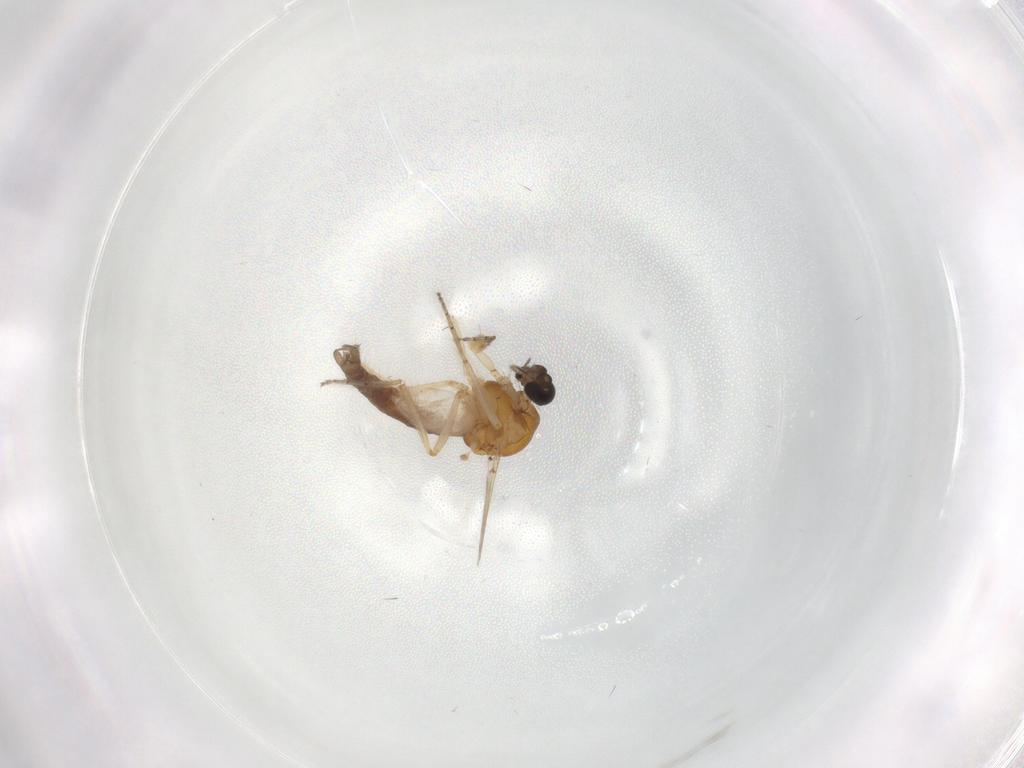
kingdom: Animalia
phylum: Arthropoda
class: Insecta
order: Diptera
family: Ceratopogonidae
